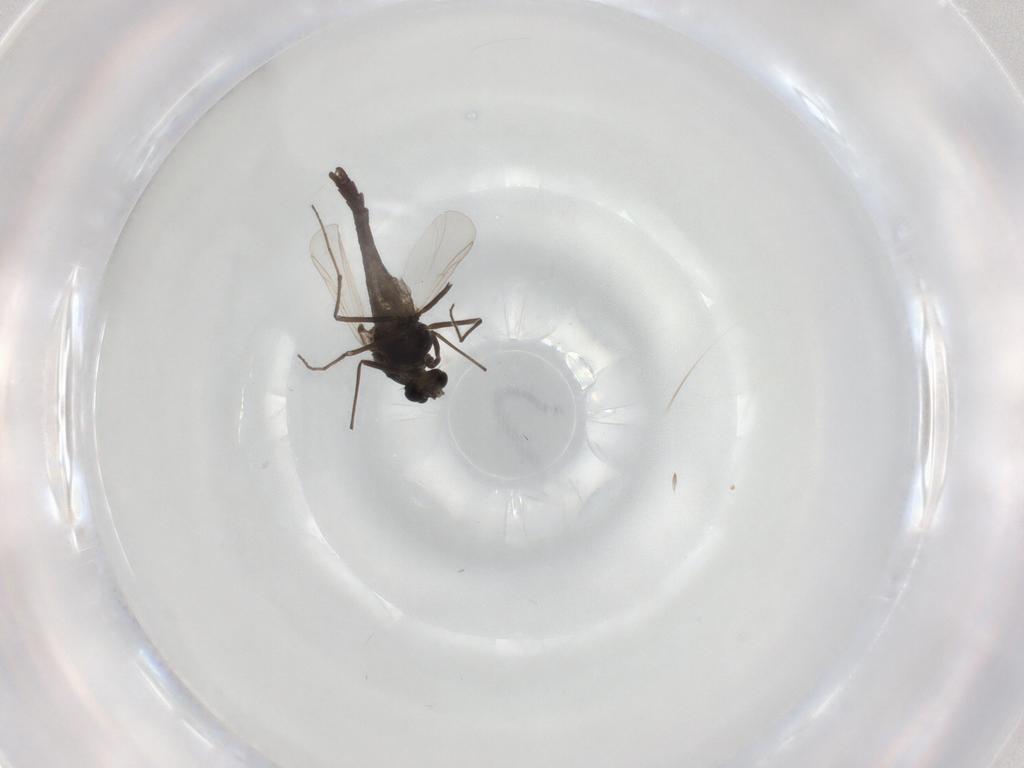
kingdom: Animalia
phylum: Arthropoda
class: Insecta
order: Diptera
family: Chironomidae
